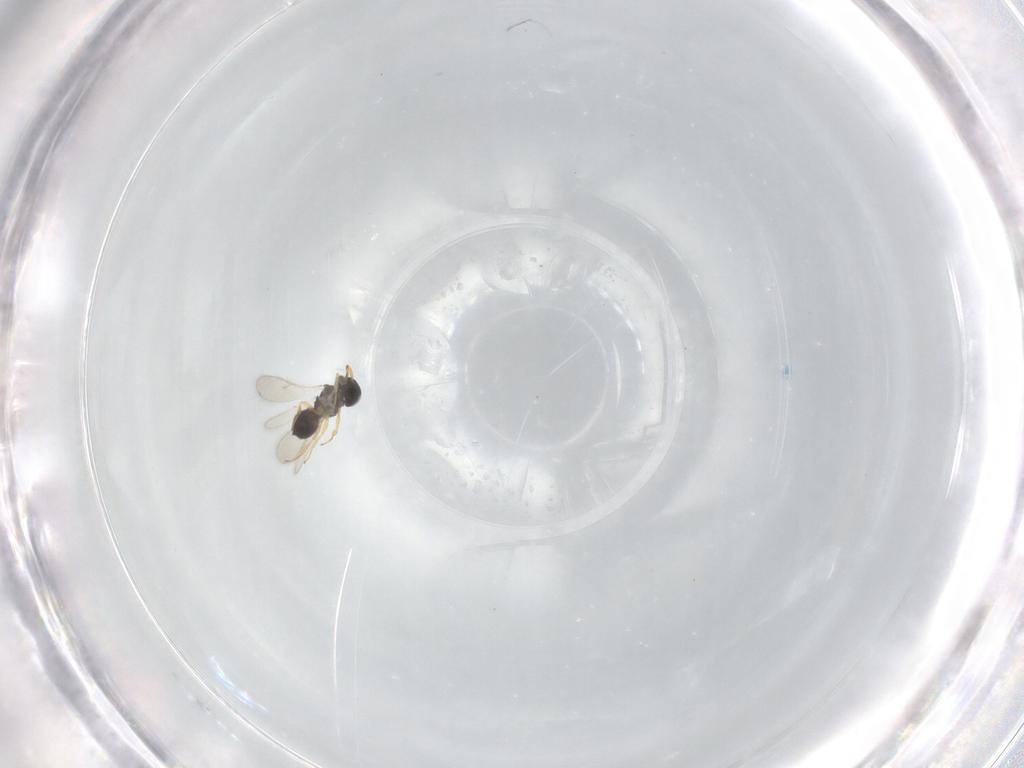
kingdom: Animalia
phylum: Arthropoda
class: Insecta
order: Hymenoptera
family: Scelionidae
